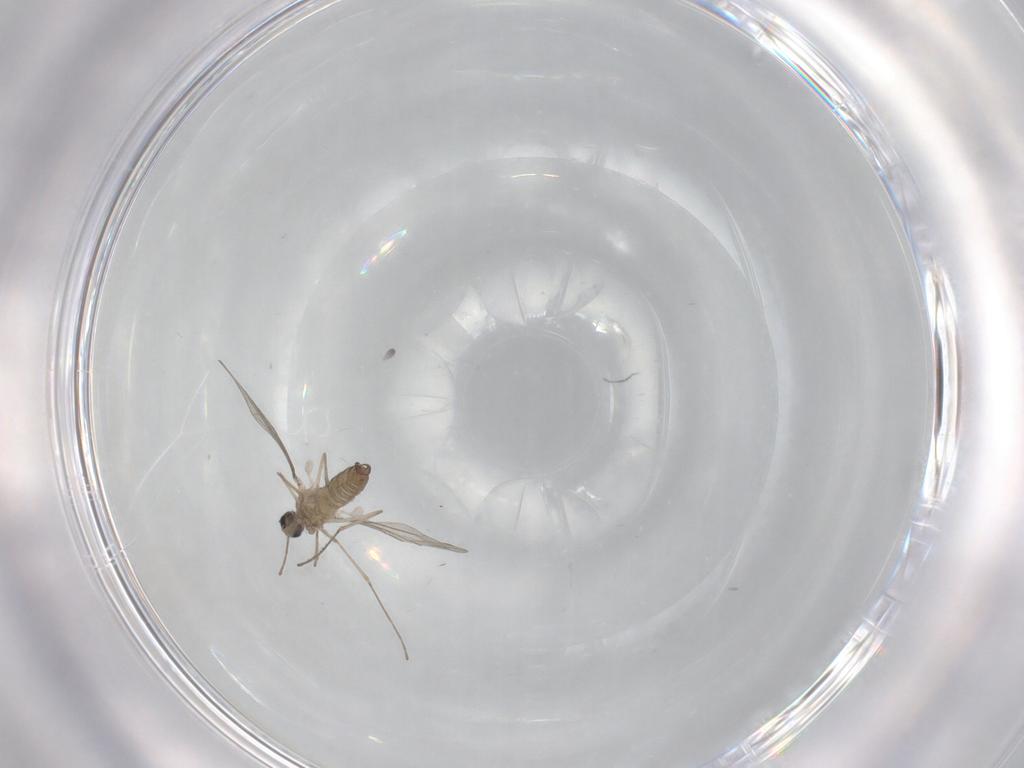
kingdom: Animalia
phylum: Arthropoda
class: Insecta
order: Diptera
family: Cecidomyiidae
